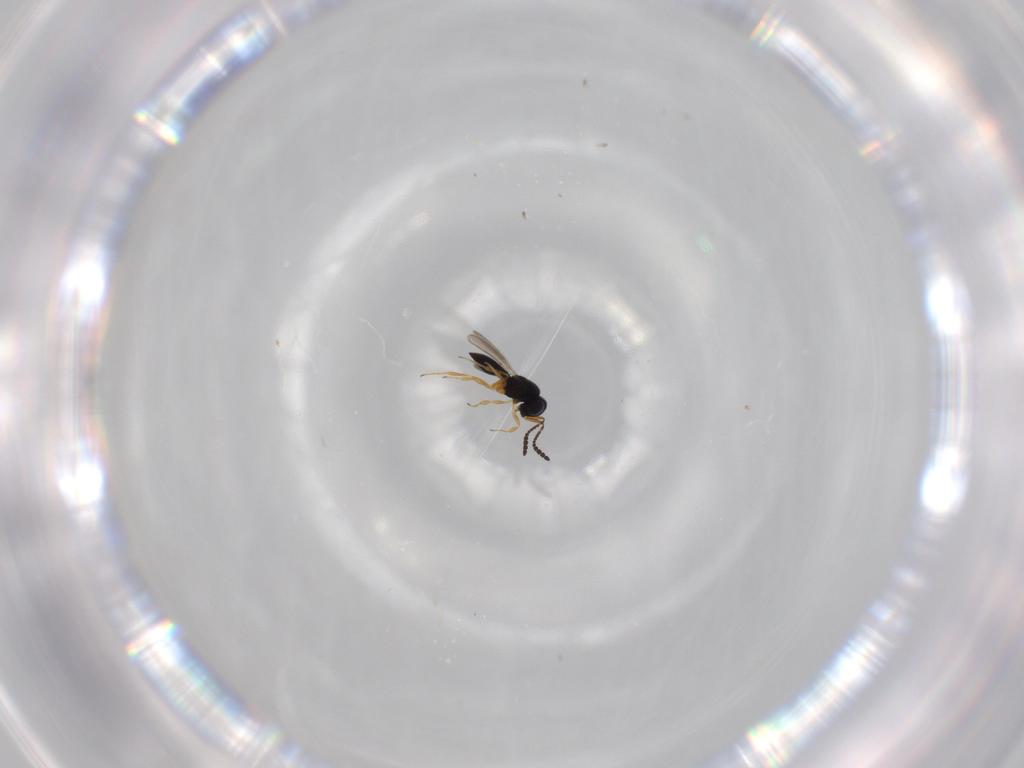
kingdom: Animalia
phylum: Arthropoda
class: Insecta
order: Hymenoptera
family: Scelionidae
